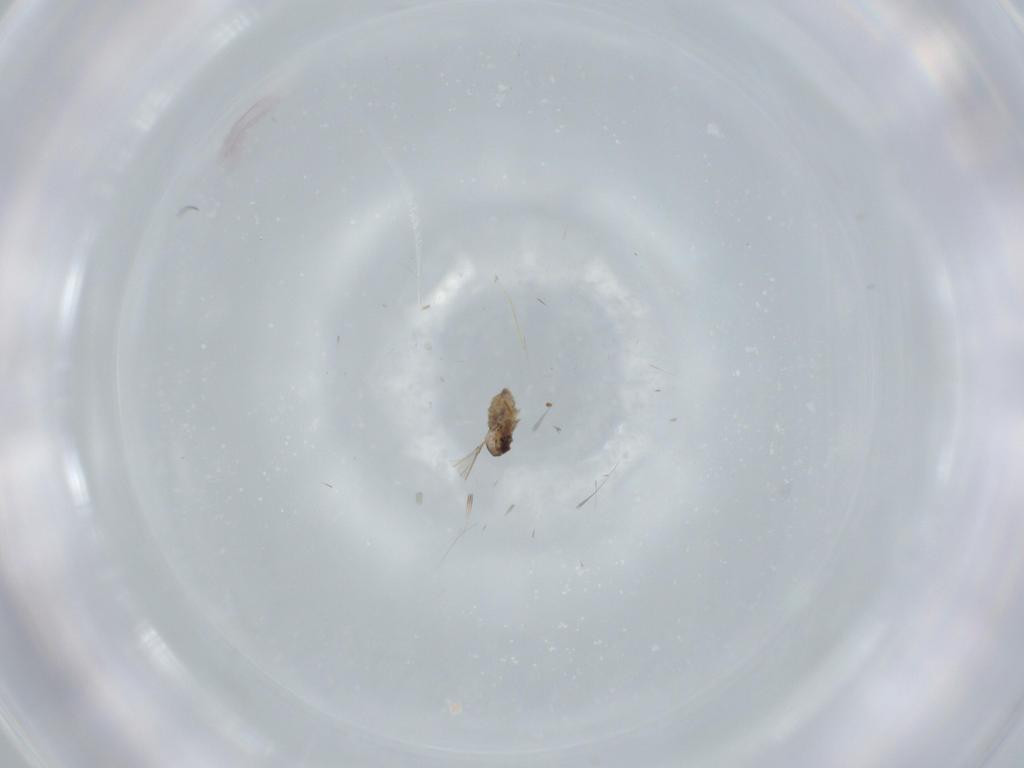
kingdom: Animalia
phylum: Arthropoda
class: Insecta
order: Diptera
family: Cecidomyiidae
